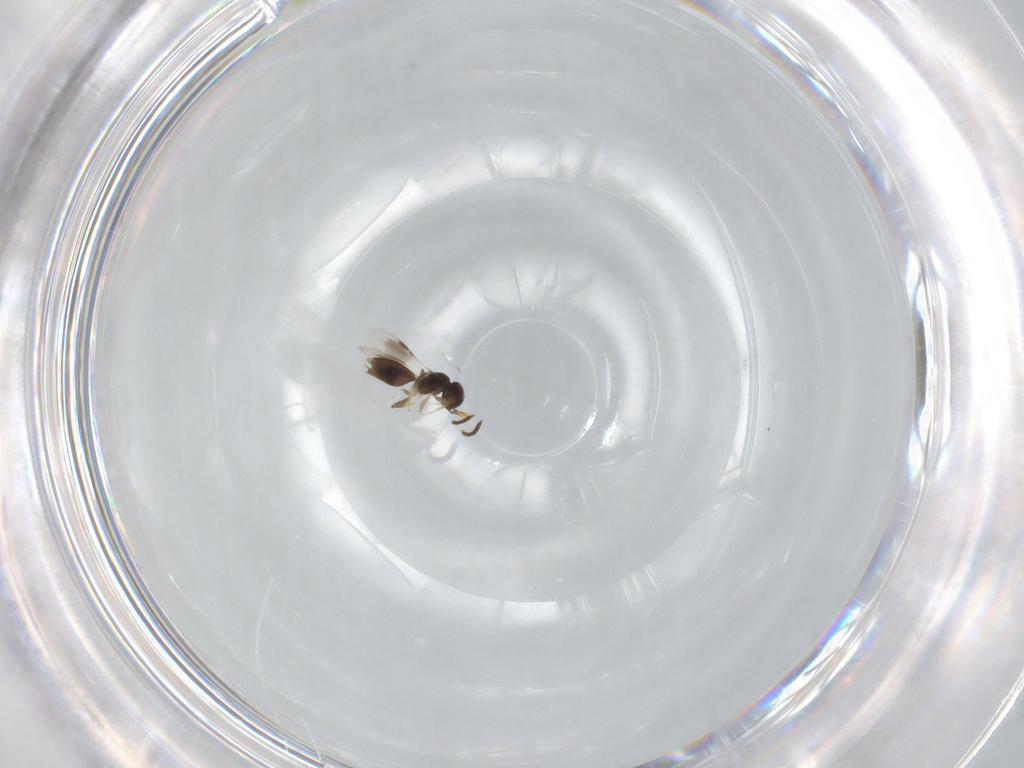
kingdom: Animalia
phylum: Arthropoda
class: Insecta
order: Hymenoptera
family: Megaspilidae
